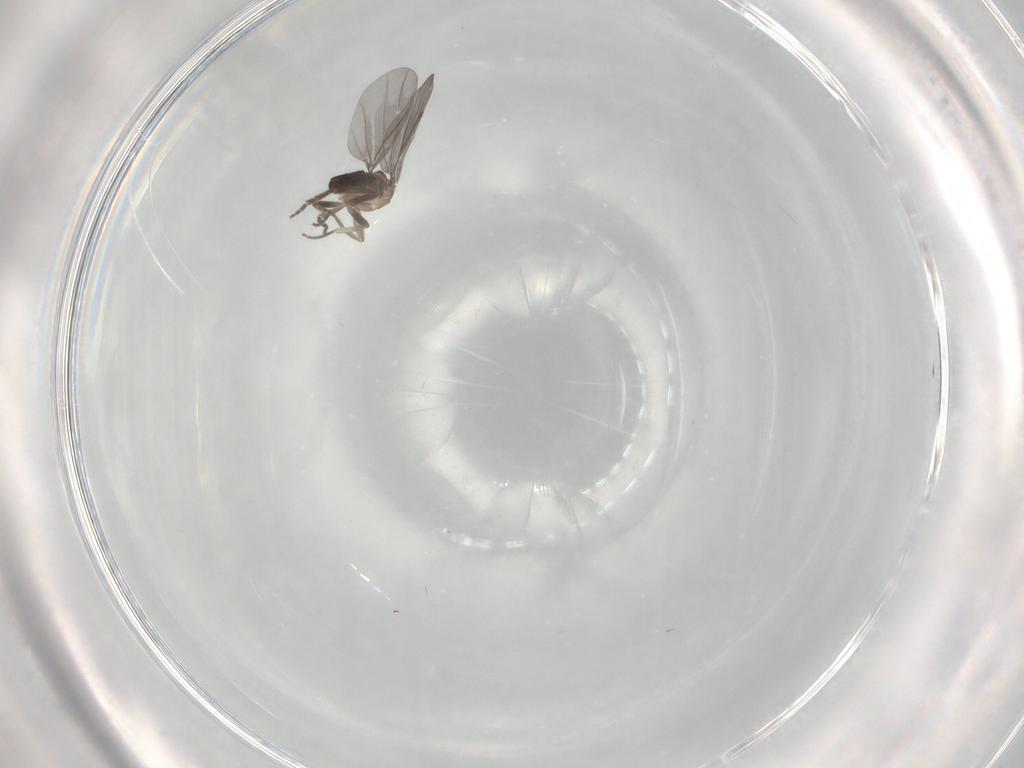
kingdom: Animalia
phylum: Arthropoda
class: Insecta
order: Diptera
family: Phoridae
